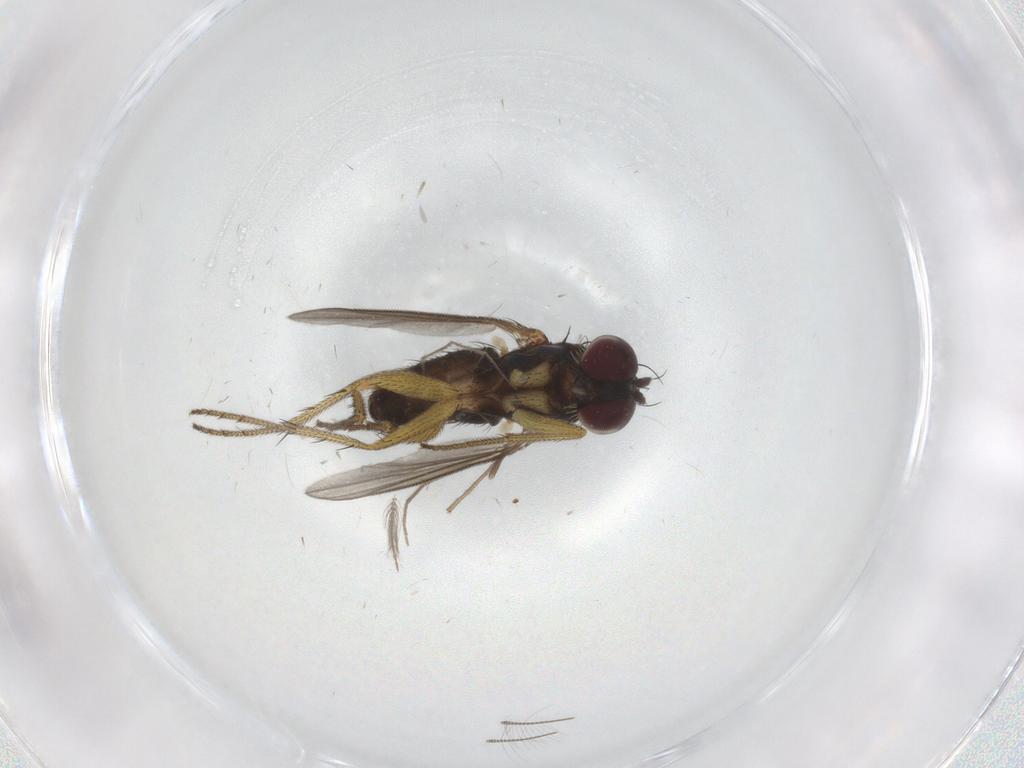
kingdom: Animalia
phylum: Arthropoda
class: Insecta
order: Diptera
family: Ceratopogonidae
